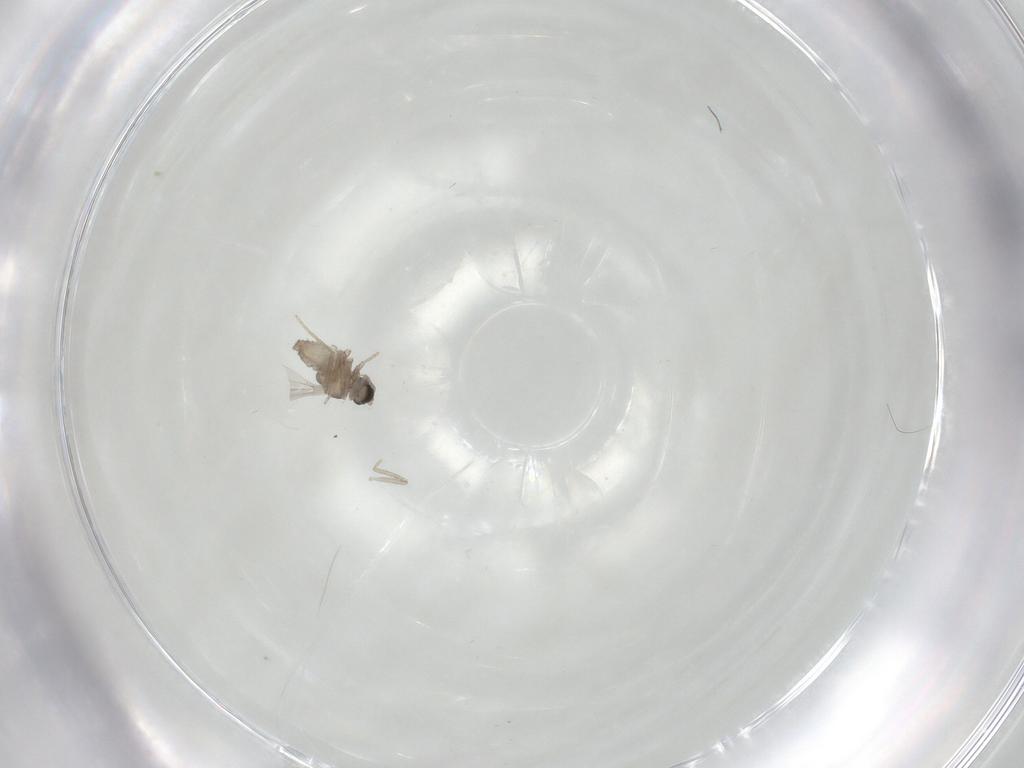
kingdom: Animalia
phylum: Arthropoda
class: Insecta
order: Diptera
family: Cecidomyiidae
